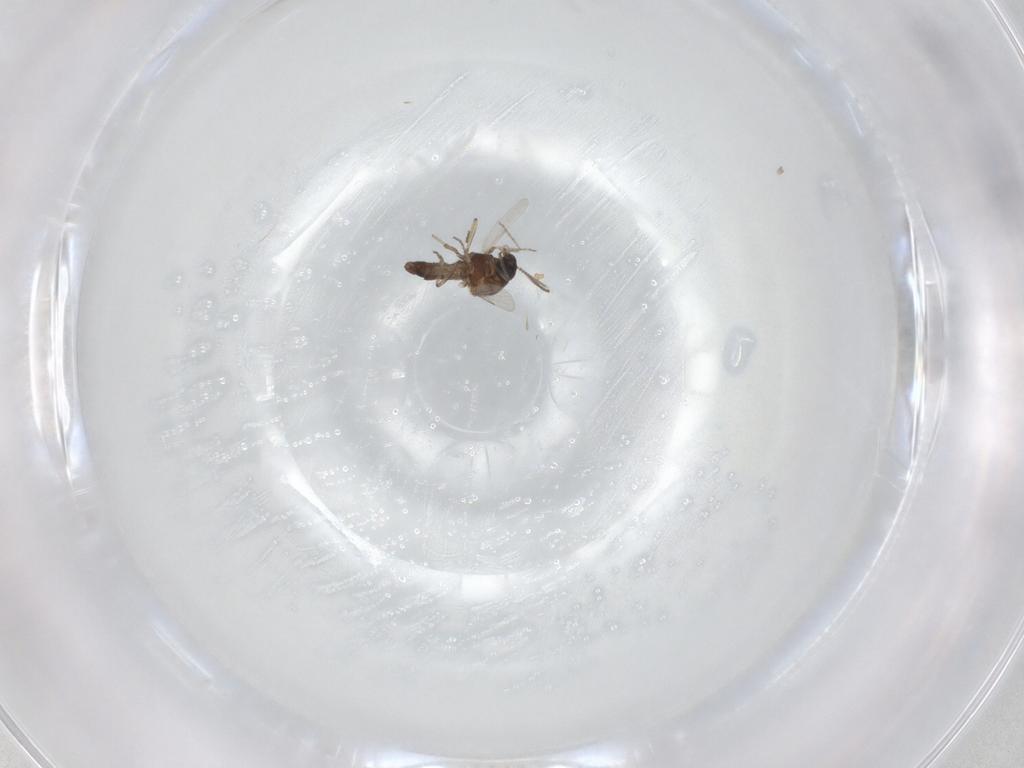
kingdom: Animalia
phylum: Arthropoda
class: Insecta
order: Diptera
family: Ceratopogonidae
